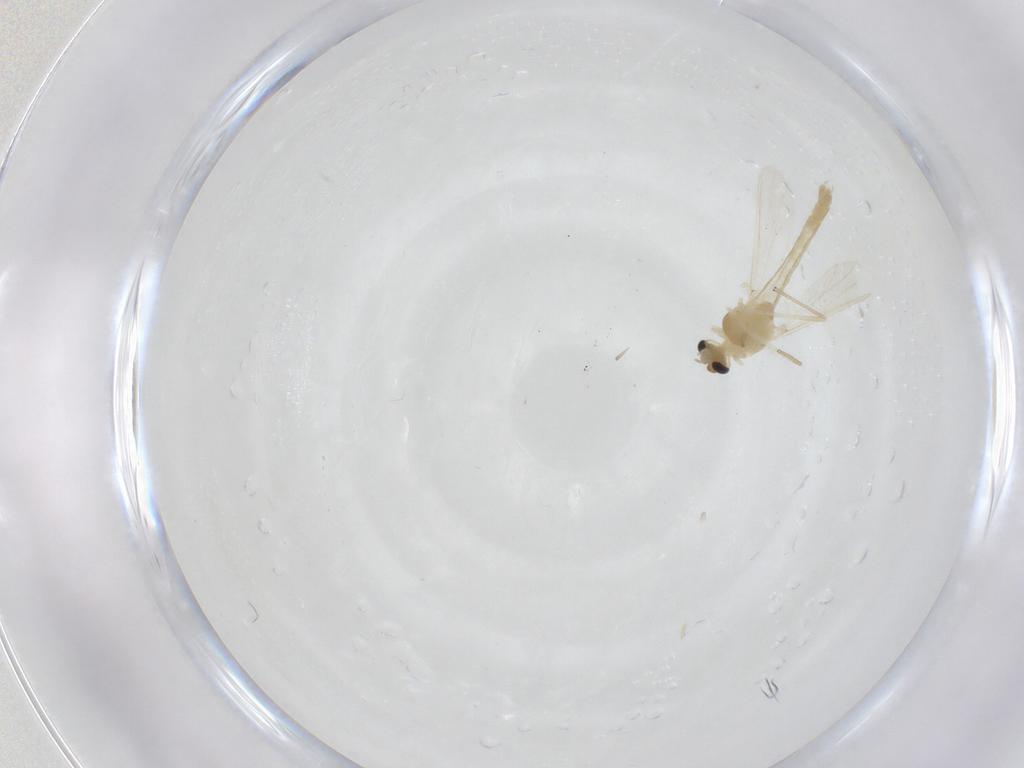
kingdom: Animalia
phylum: Arthropoda
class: Insecta
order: Diptera
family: Chironomidae
